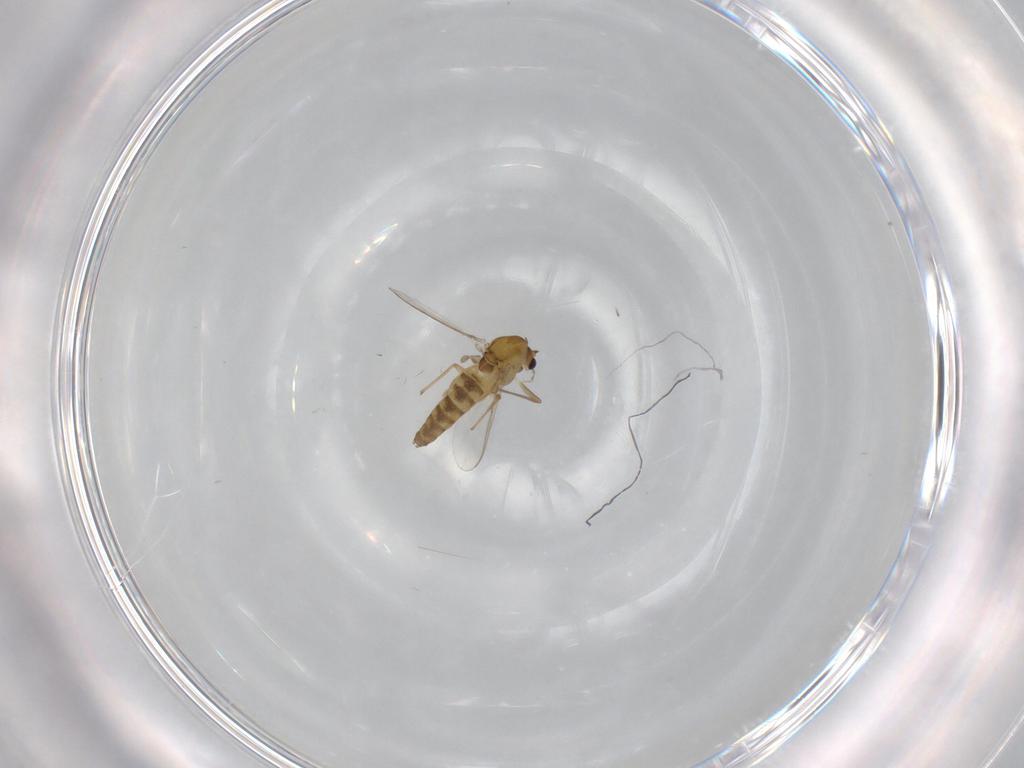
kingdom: Animalia
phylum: Arthropoda
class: Insecta
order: Diptera
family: Chironomidae
